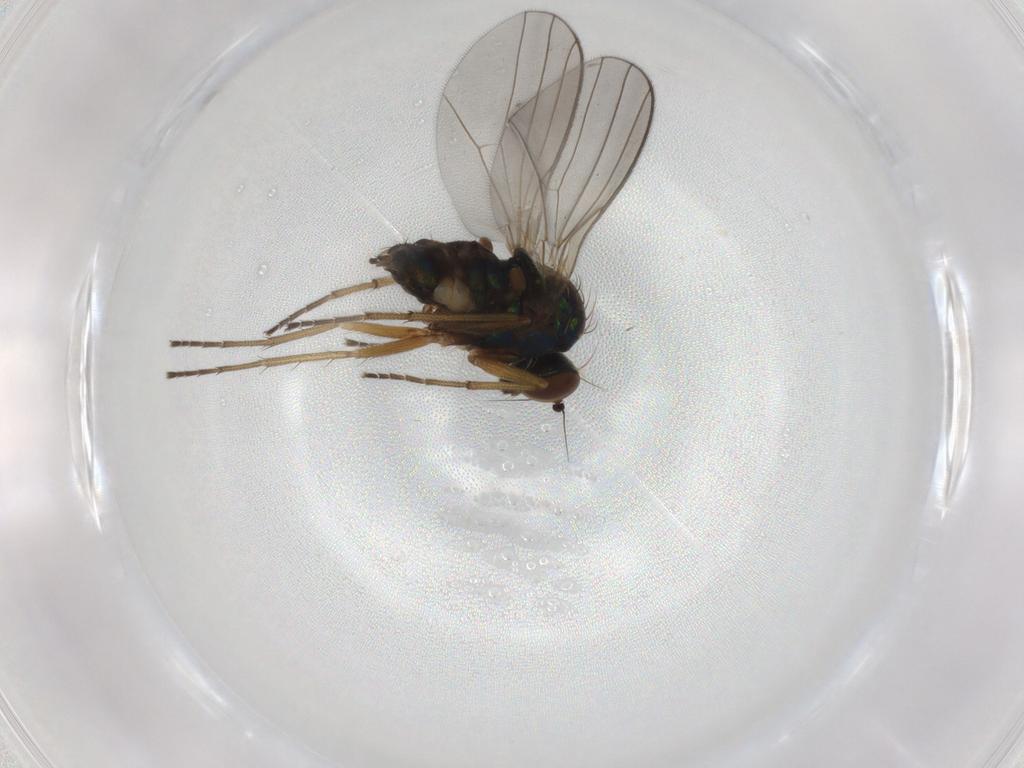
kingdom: Animalia
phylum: Arthropoda
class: Insecta
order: Diptera
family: Dolichopodidae
